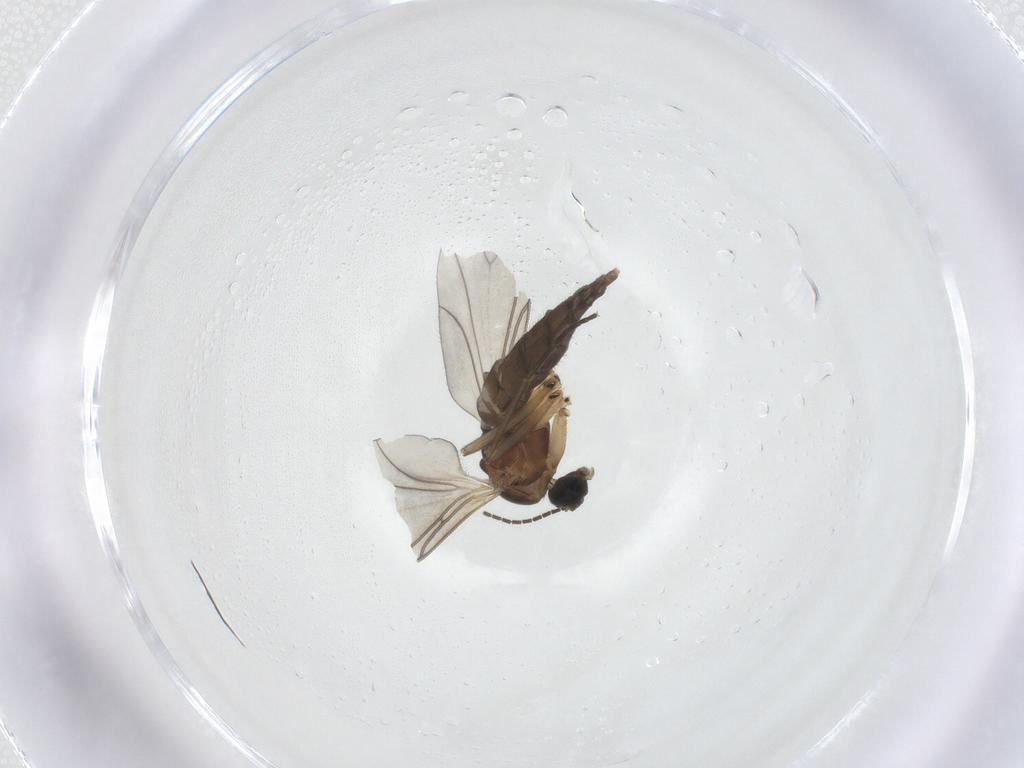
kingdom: Animalia
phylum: Arthropoda
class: Insecta
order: Diptera
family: Sciaridae
